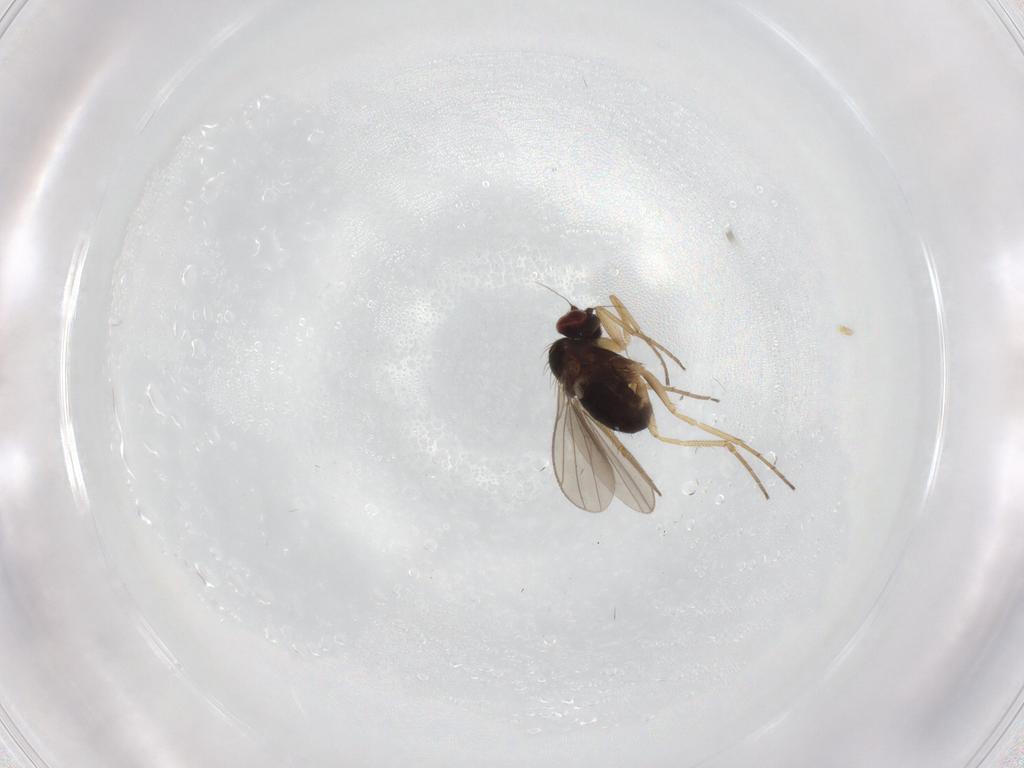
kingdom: Animalia
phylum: Arthropoda
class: Insecta
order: Diptera
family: Dolichopodidae
